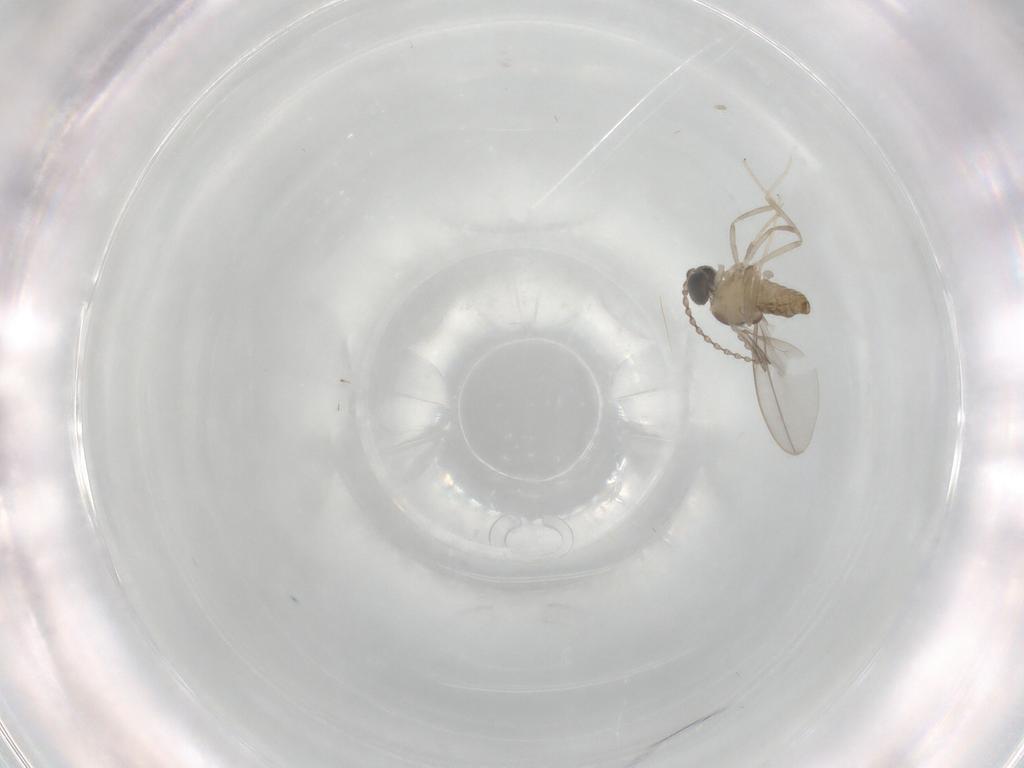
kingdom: Animalia
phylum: Arthropoda
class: Insecta
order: Diptera
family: Cecidomyiidae
